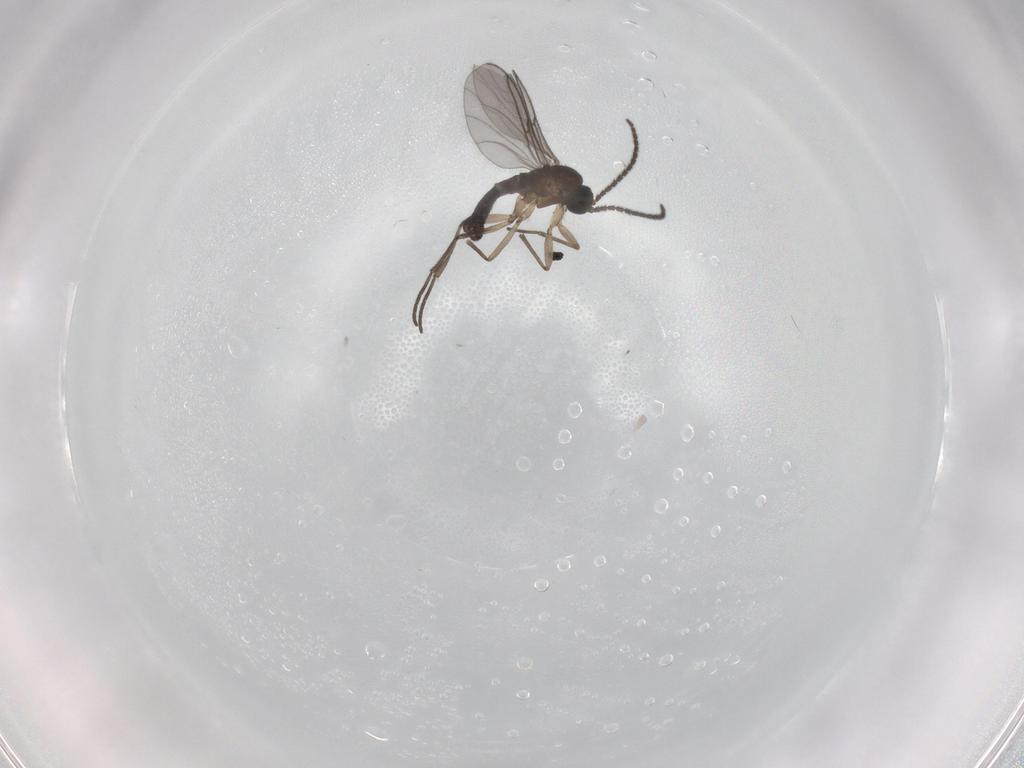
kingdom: Animalia
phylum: Arthropoda
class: Insecta
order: Diptera
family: Sciaridae
